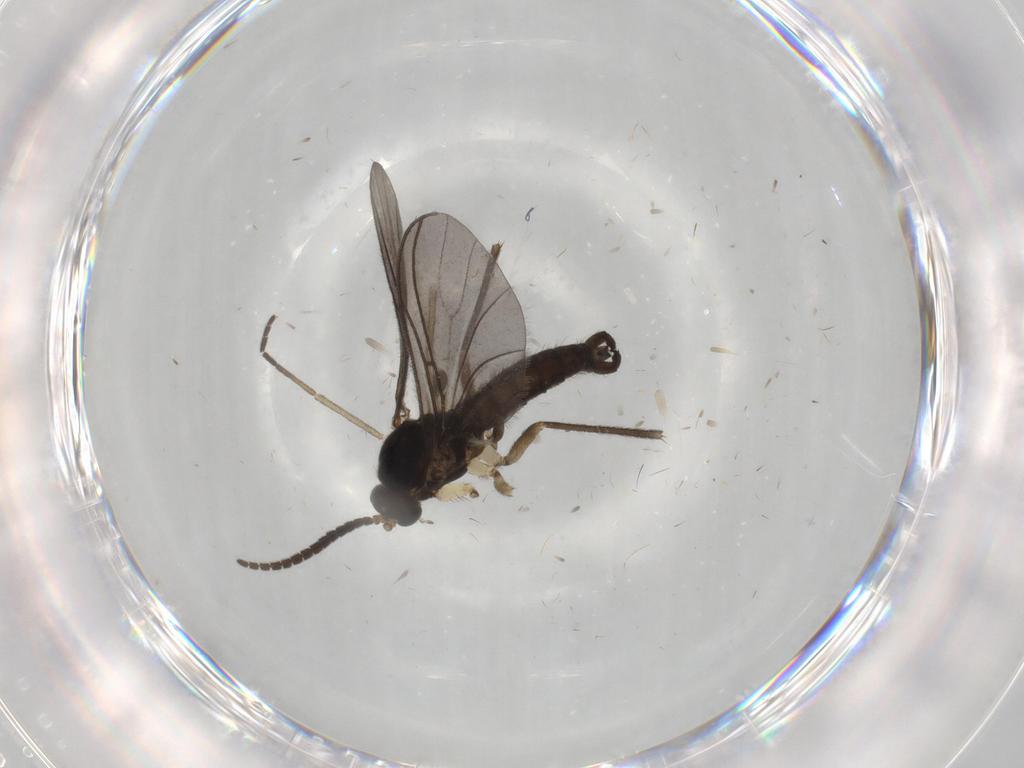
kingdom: Animalia
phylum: Arthropoda
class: Insecta
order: Diptera
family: Sciaridae
